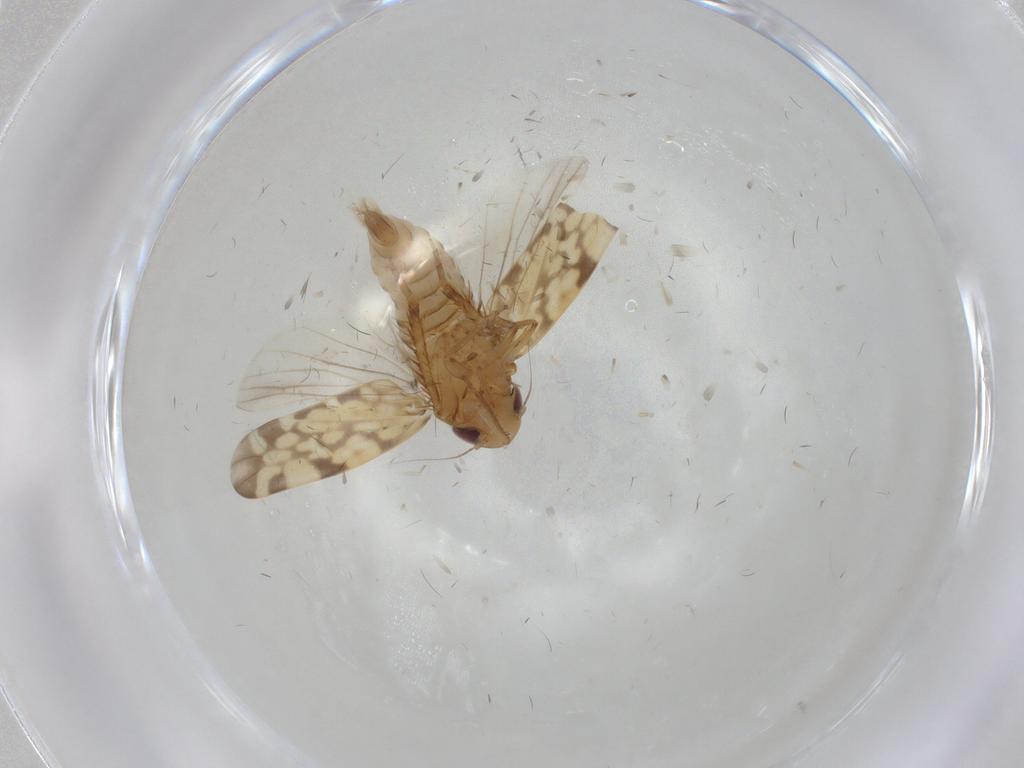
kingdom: Animalia
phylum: Arthropoda
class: Insecta
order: Hemiptera
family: Cicadellidae
